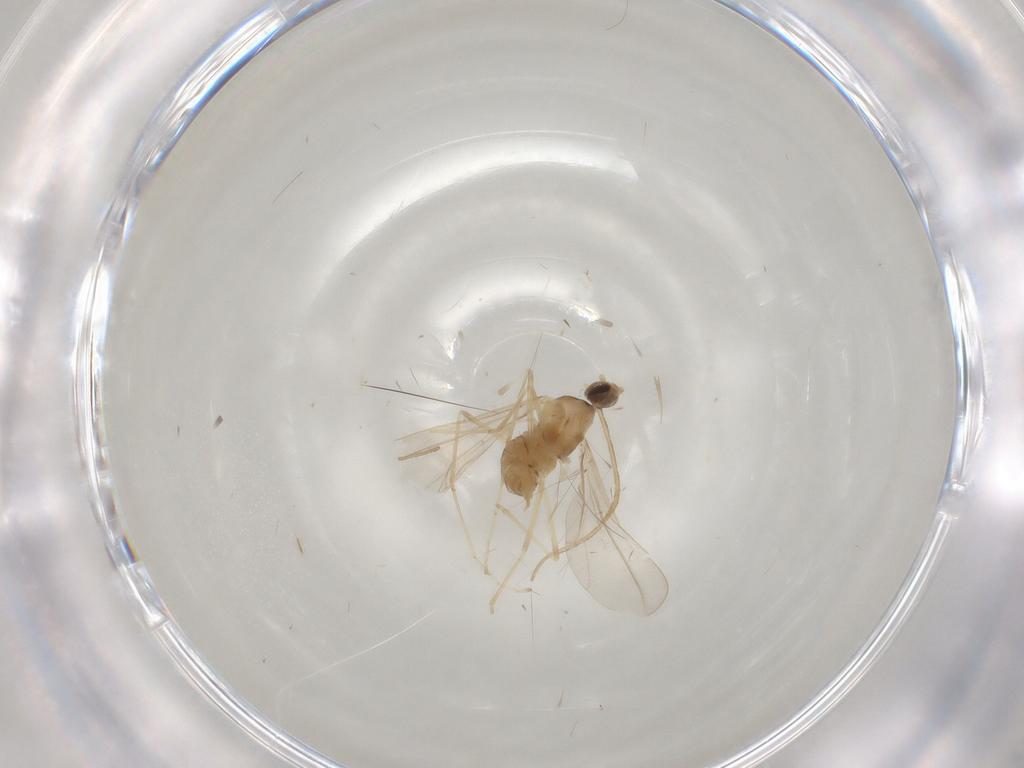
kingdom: Animalia
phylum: Arthropoda
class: Insecta
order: Diptera
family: Cecidomyiidae
